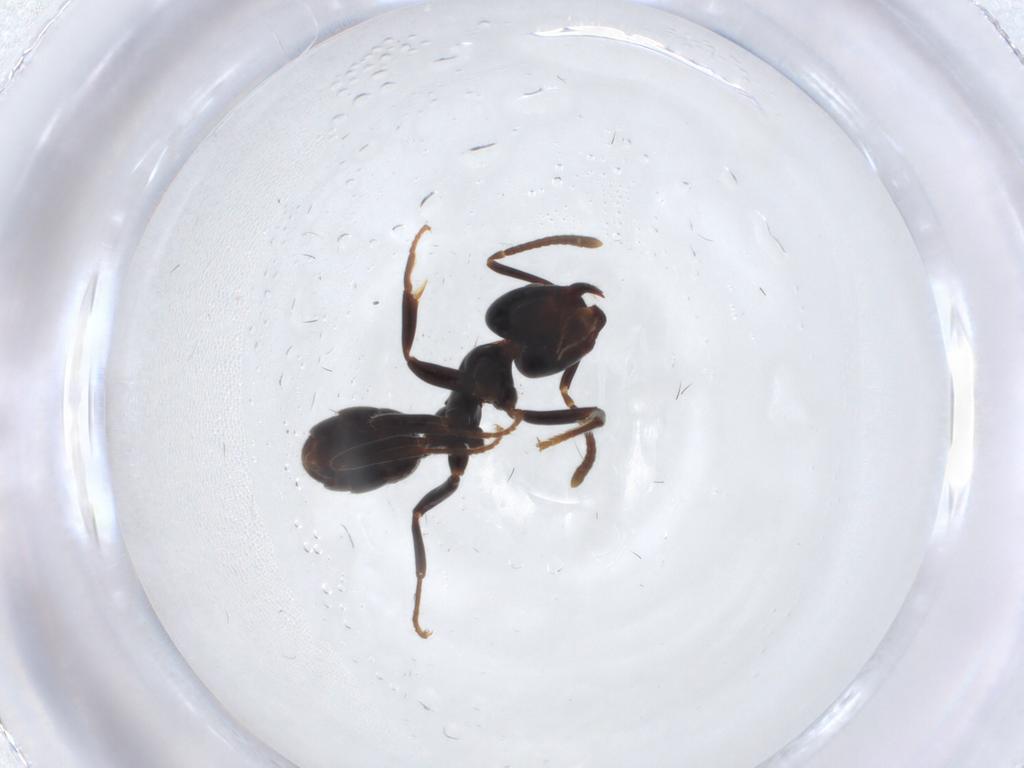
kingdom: Animalia
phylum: Arthropoda
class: Insecta
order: Hymenoptera
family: Formicidae
